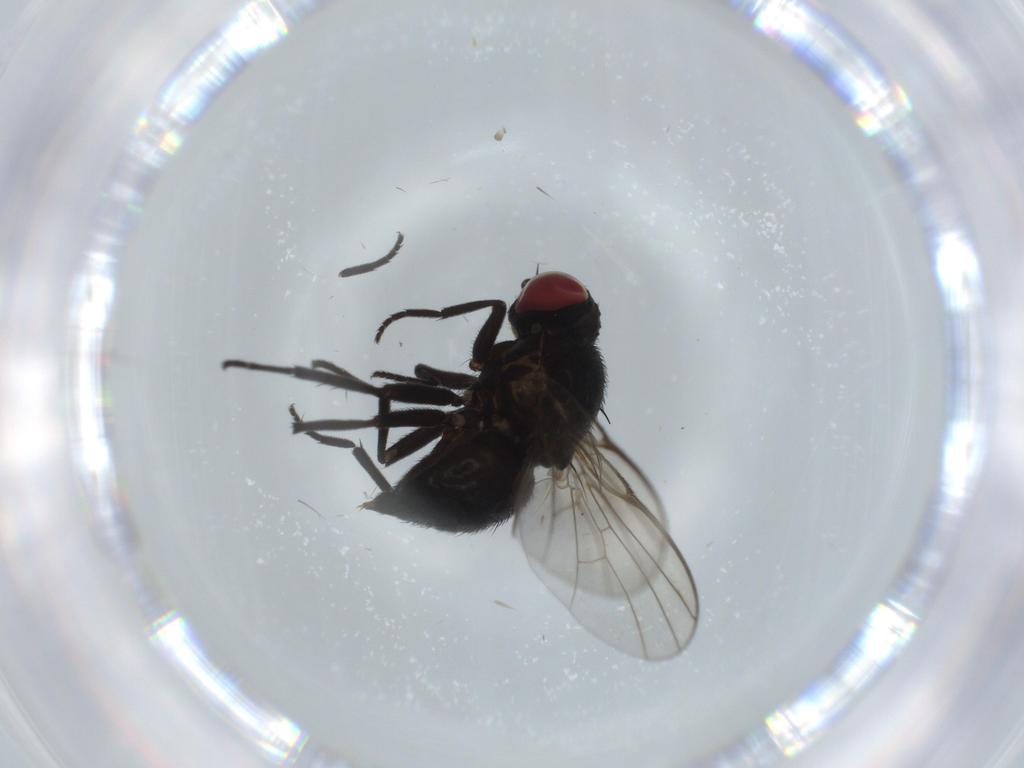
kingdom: Animalia
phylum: Arthropoda
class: Insecta
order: Diptera
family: Agromyzidae
